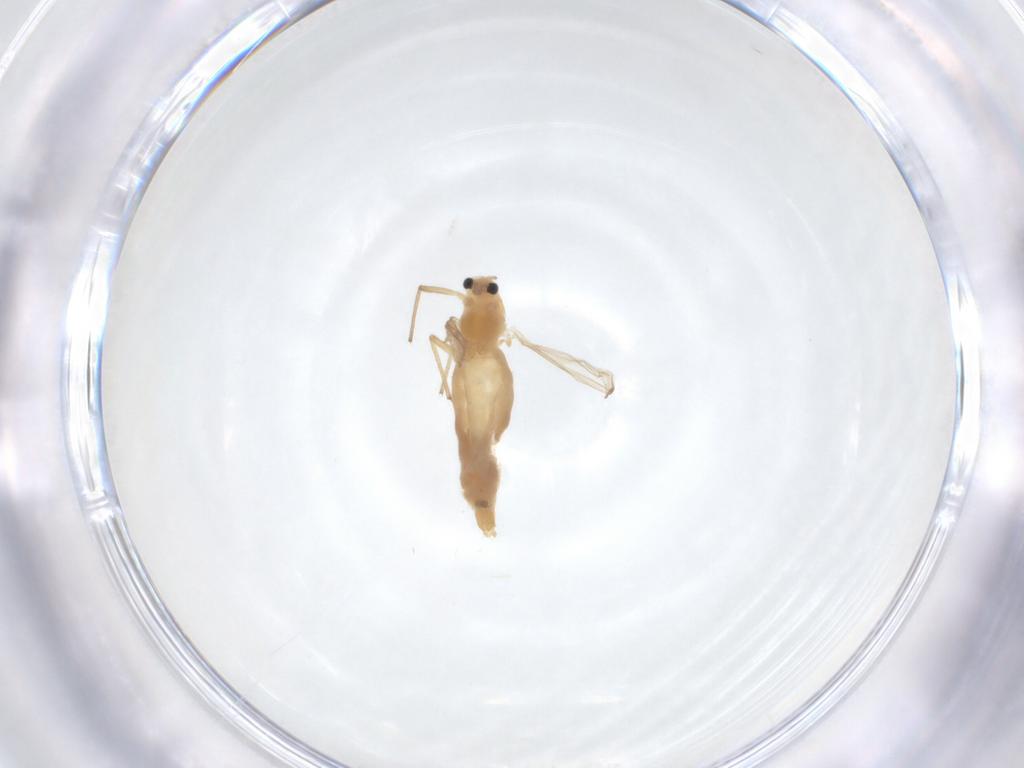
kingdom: Animalia
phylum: Arthropoda
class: Insecta
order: Diptera
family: Chironomidae
